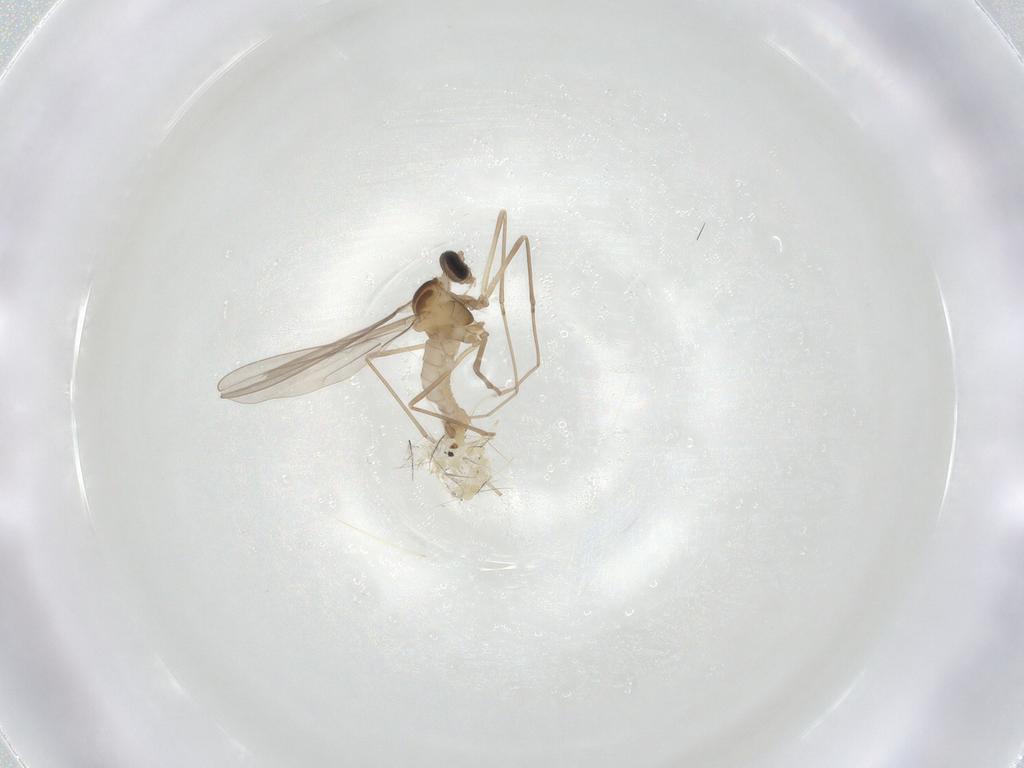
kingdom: Animalia
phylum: Arthropoda
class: Insecta
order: Diptera
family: Cecidomyiidae
